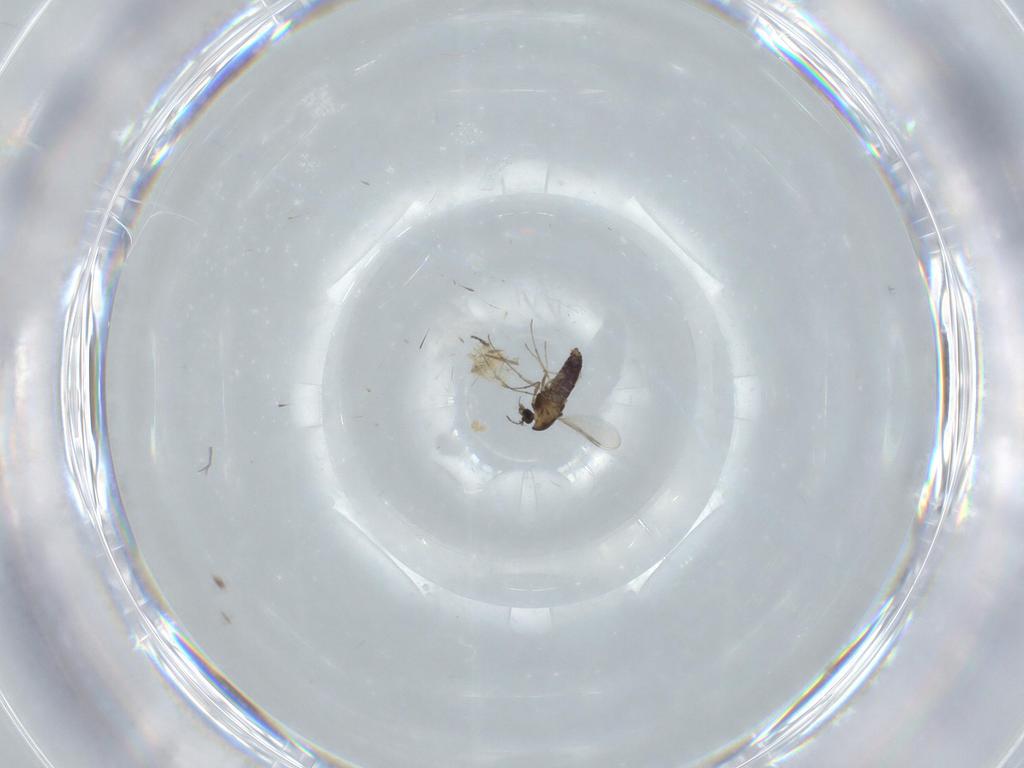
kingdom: Animalia
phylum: Arthropoda
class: Insecta
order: Diptera
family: Chironomidae
